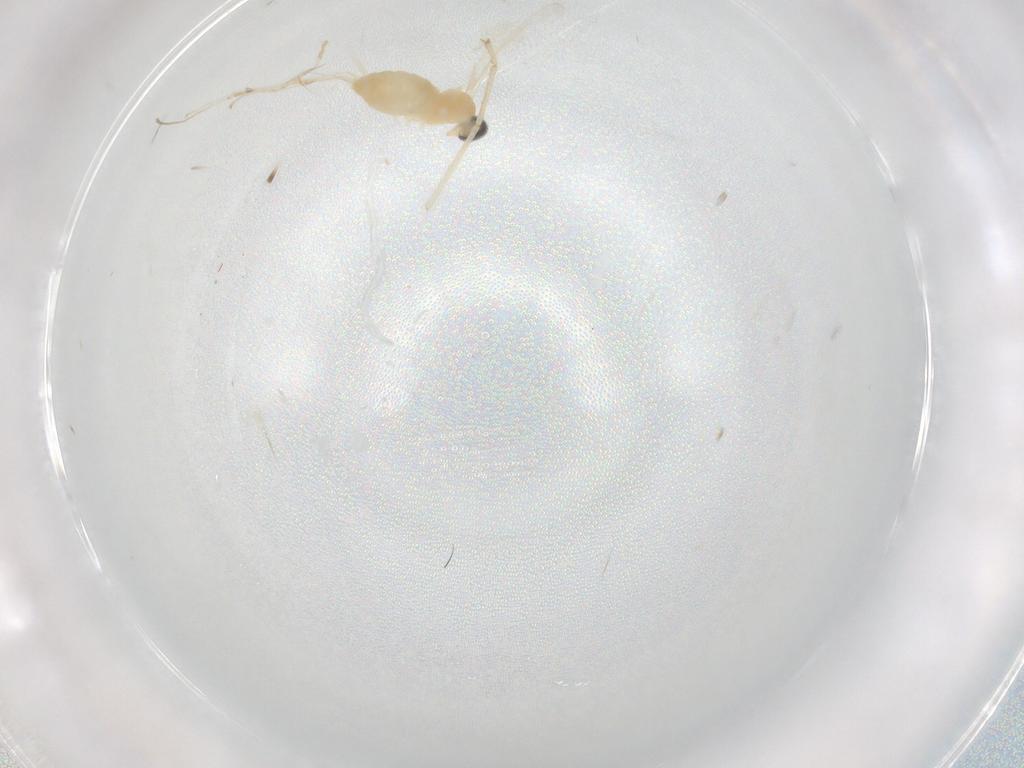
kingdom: Animalia
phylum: Arthropoda
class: Insecta
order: Diptera
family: Cecidomyiidae
